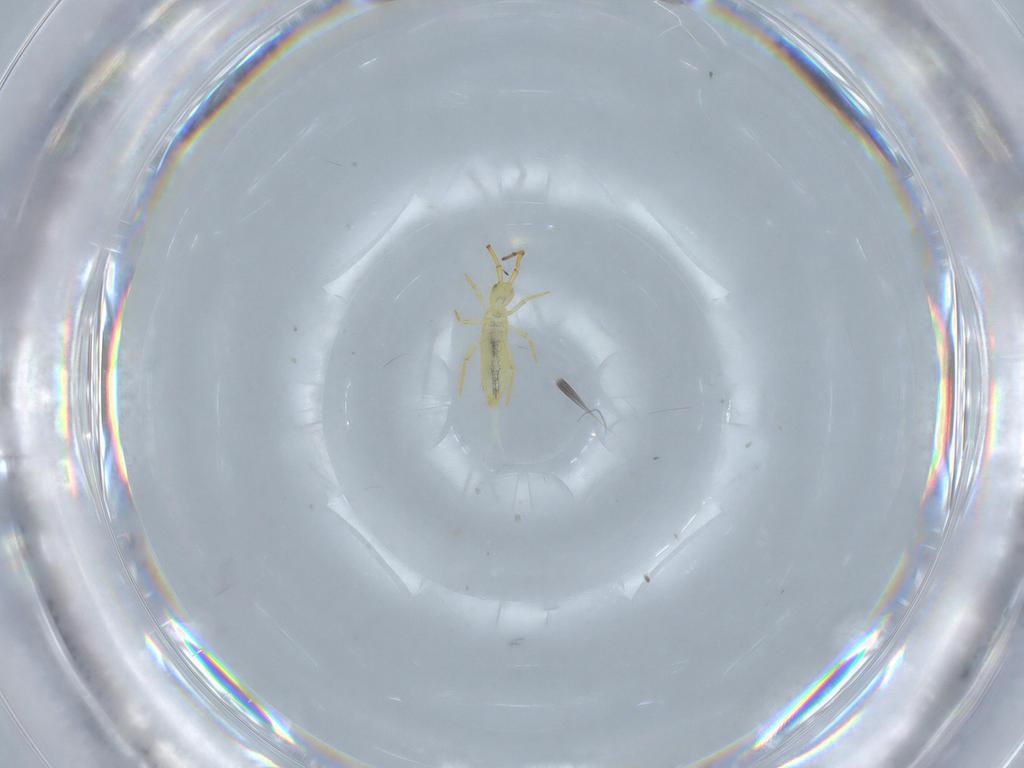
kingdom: Animalia
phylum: Arthropoda
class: Collembola
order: Entomobryomorpha
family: Paronellidae
